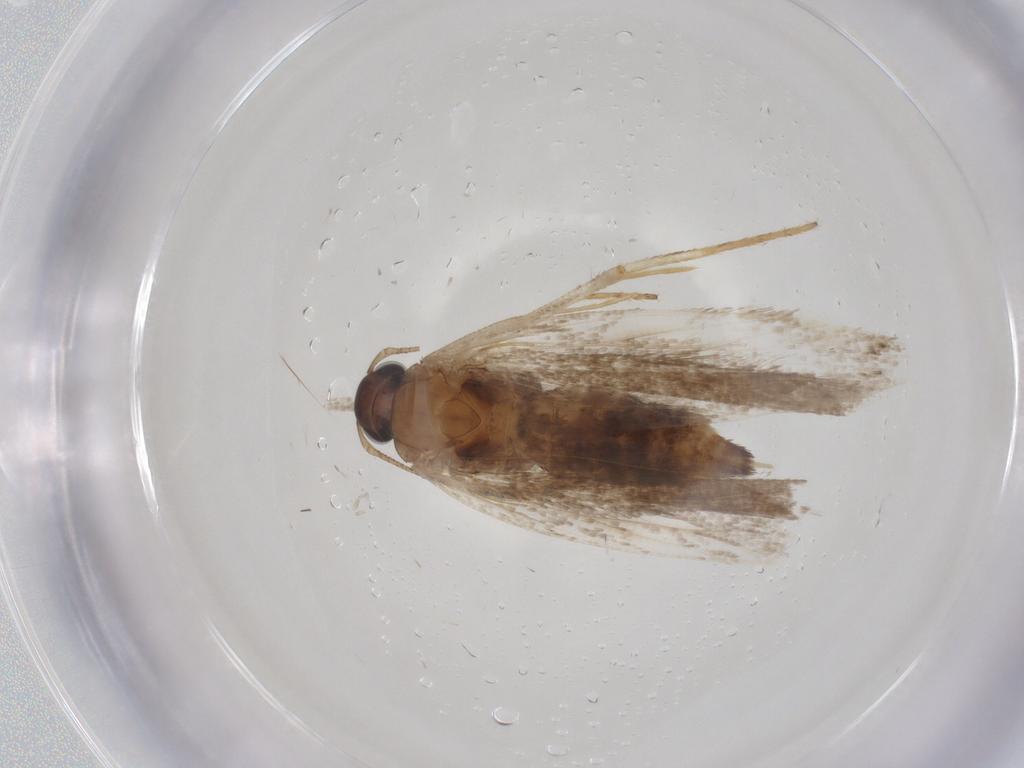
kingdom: Animalia
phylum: Arthropoda
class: Insecta
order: Lepidoptera
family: Gelechiidae
